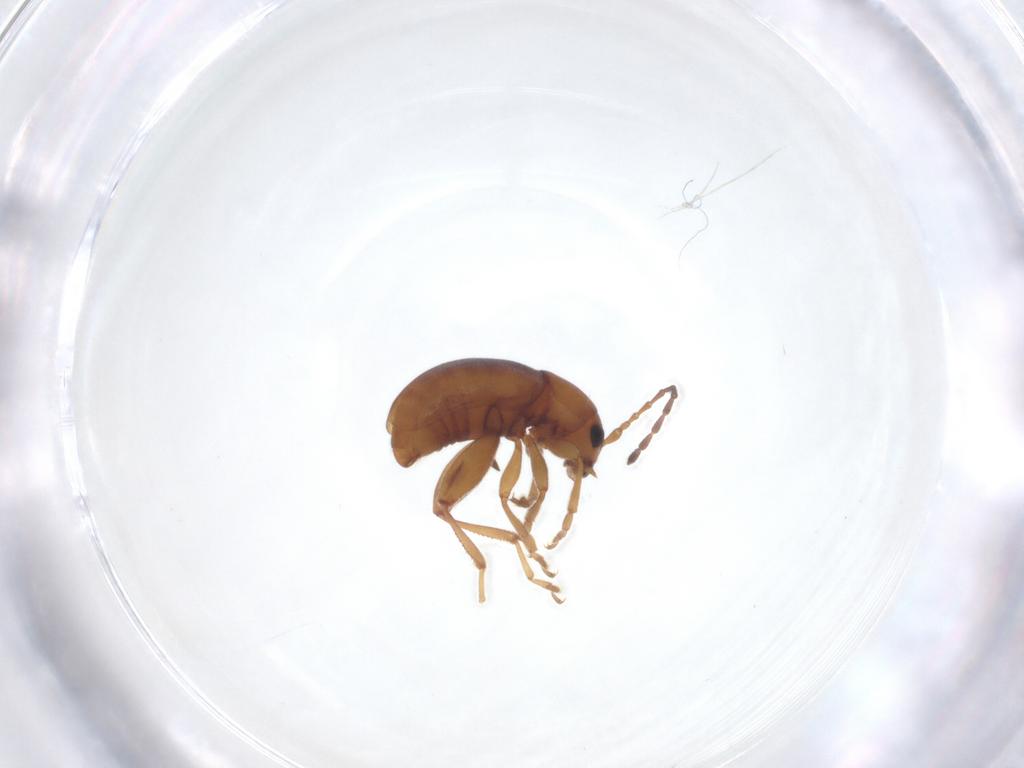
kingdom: Animalia
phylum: Arthropoda
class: Insecta
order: Coleoptera
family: Chrysomelidae
